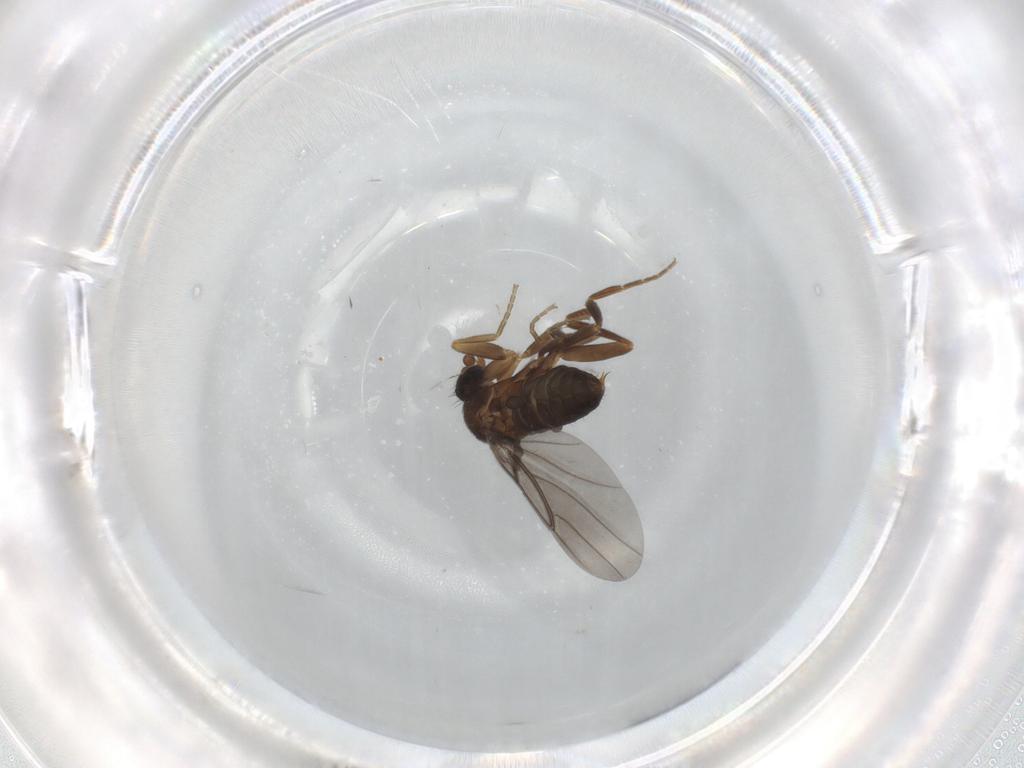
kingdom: Animalia
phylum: Arthropoda
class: Insecta
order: Diptera
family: Phoridae
